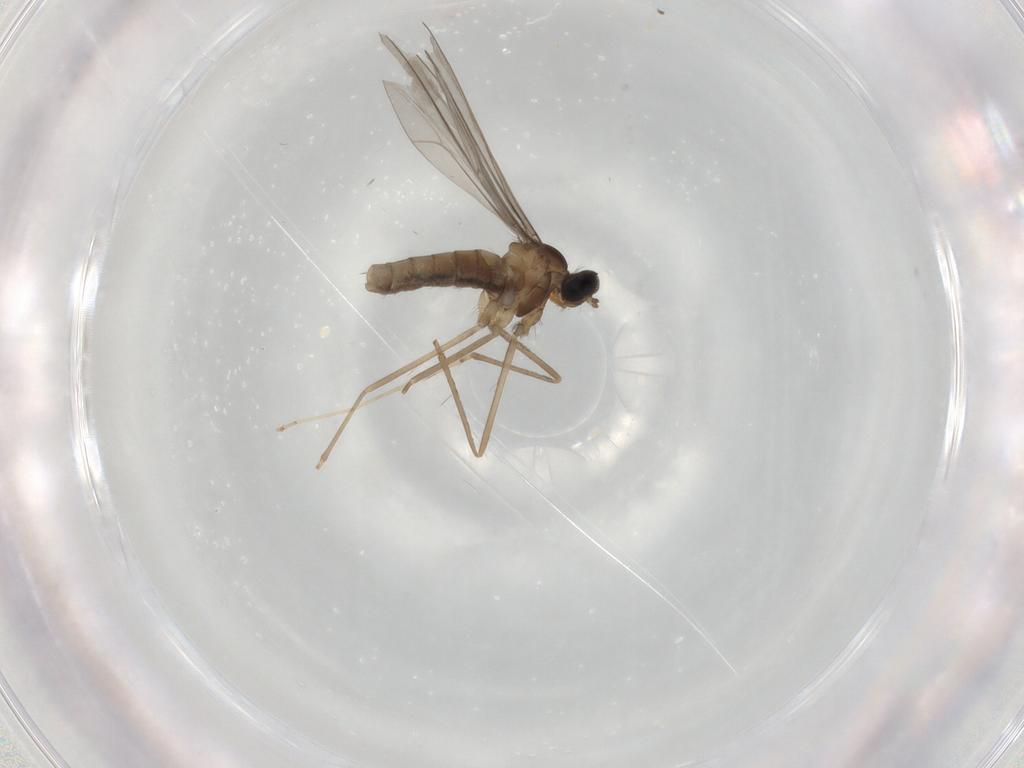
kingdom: Animalia
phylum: Arthropoda
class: Insecta
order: Diptera
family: Cecidomyiidae
